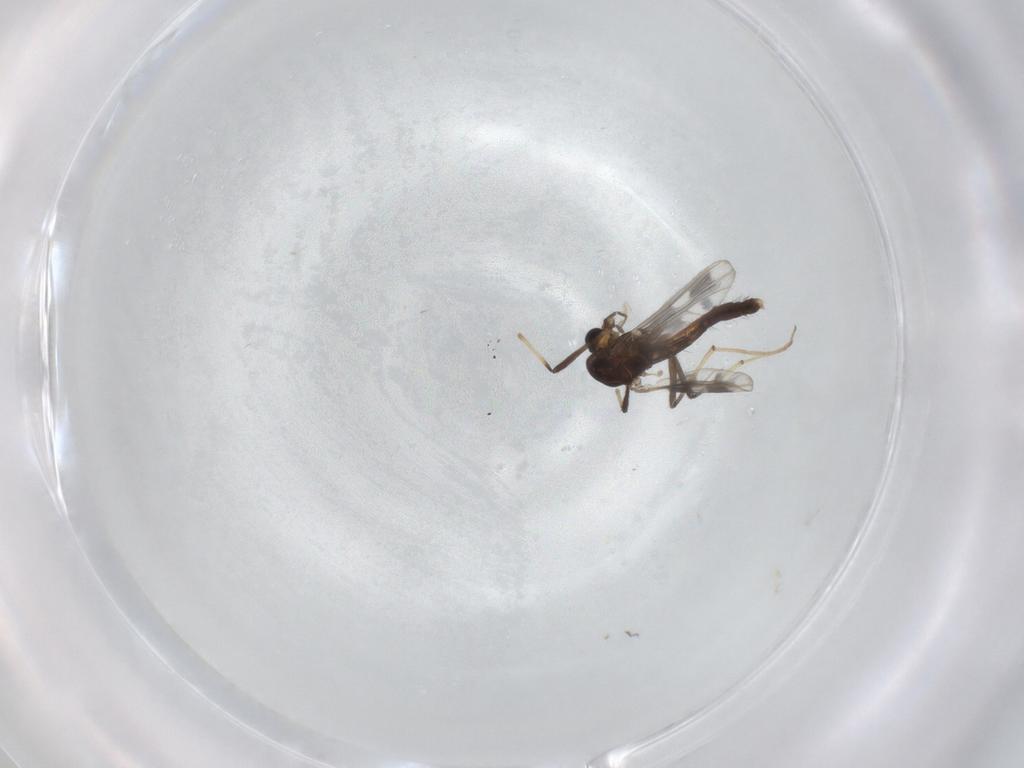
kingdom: Animalia
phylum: Arthropoda
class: Insecta
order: Diptera
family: Chironomidae
